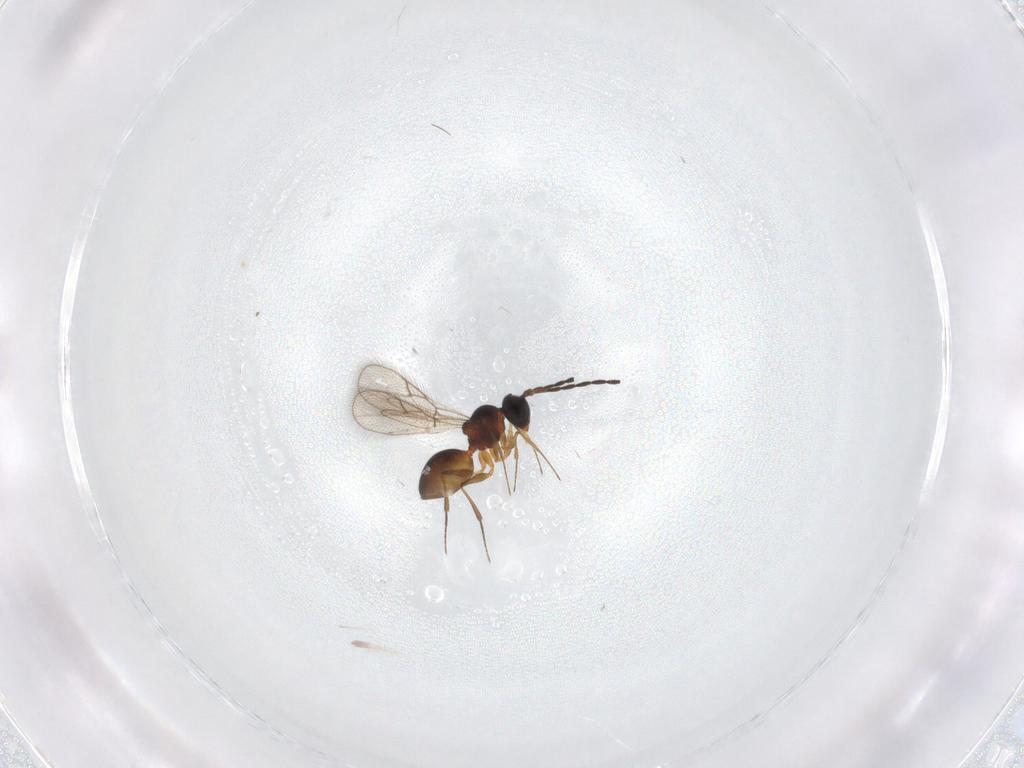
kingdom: Animalia
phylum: Arthropoda
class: Insecta
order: Hymenoptera
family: Figitidae
